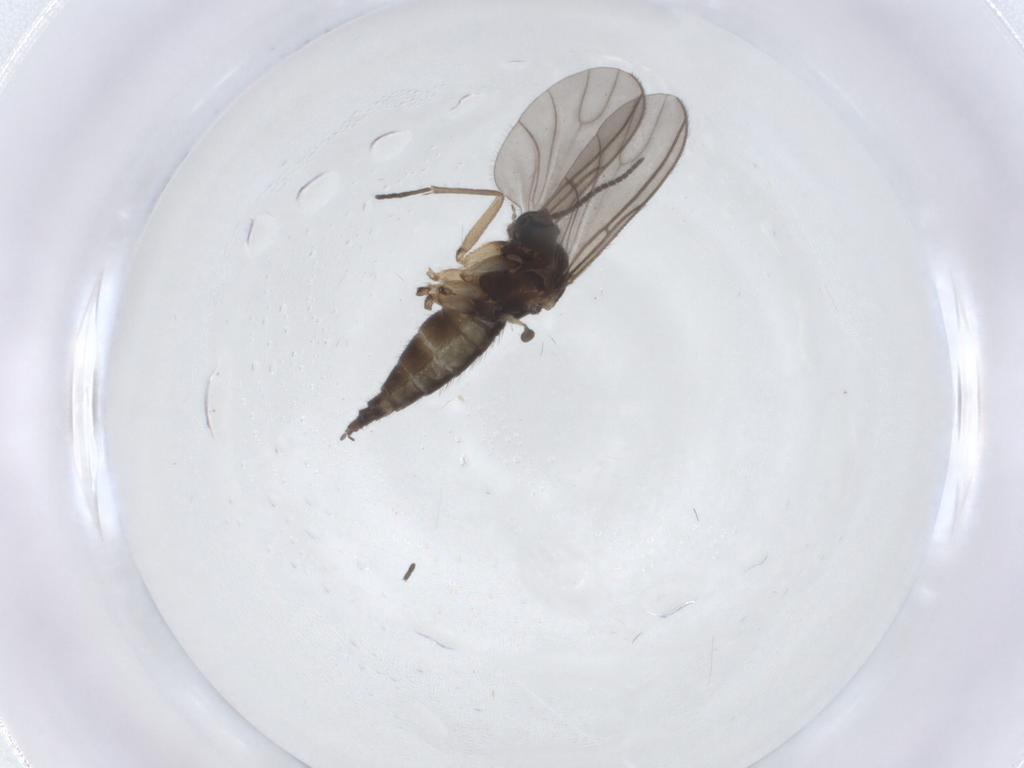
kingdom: Animalia
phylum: Arthropoda
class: Insecta
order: Diptera
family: Sciaridae
